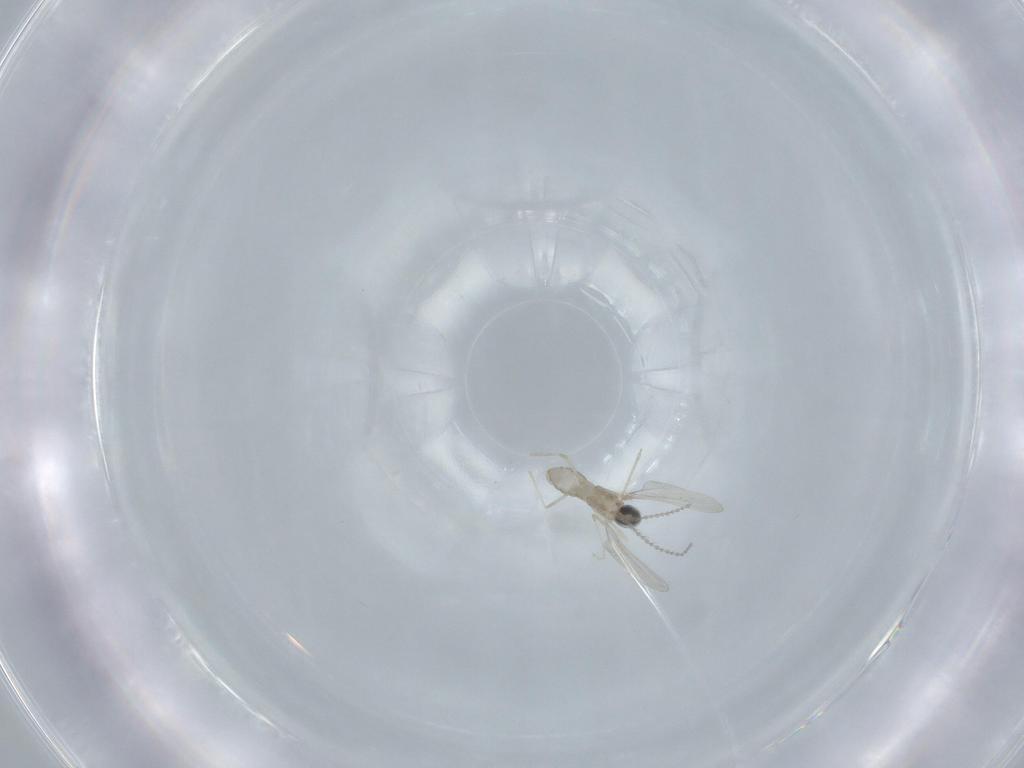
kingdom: Animalia
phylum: Arthropoda
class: Insecta
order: Diptera
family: Cecidomyiidae
